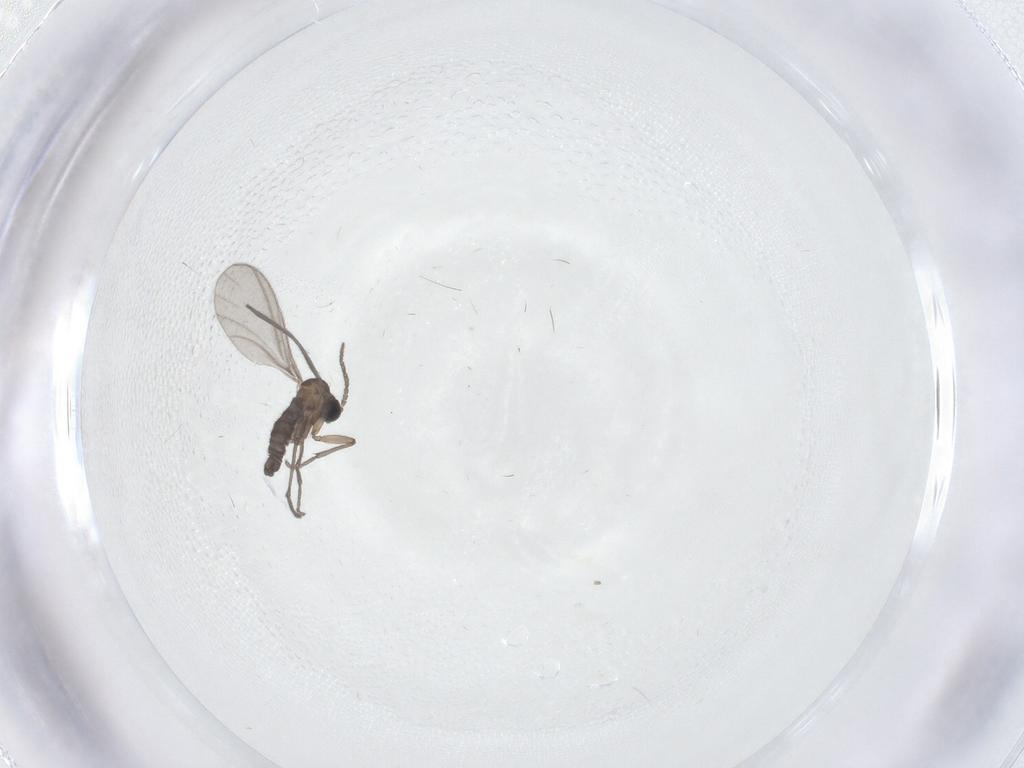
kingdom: Animalia
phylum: Arthropoda
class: Insecta
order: Diptera
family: Sciaridae
